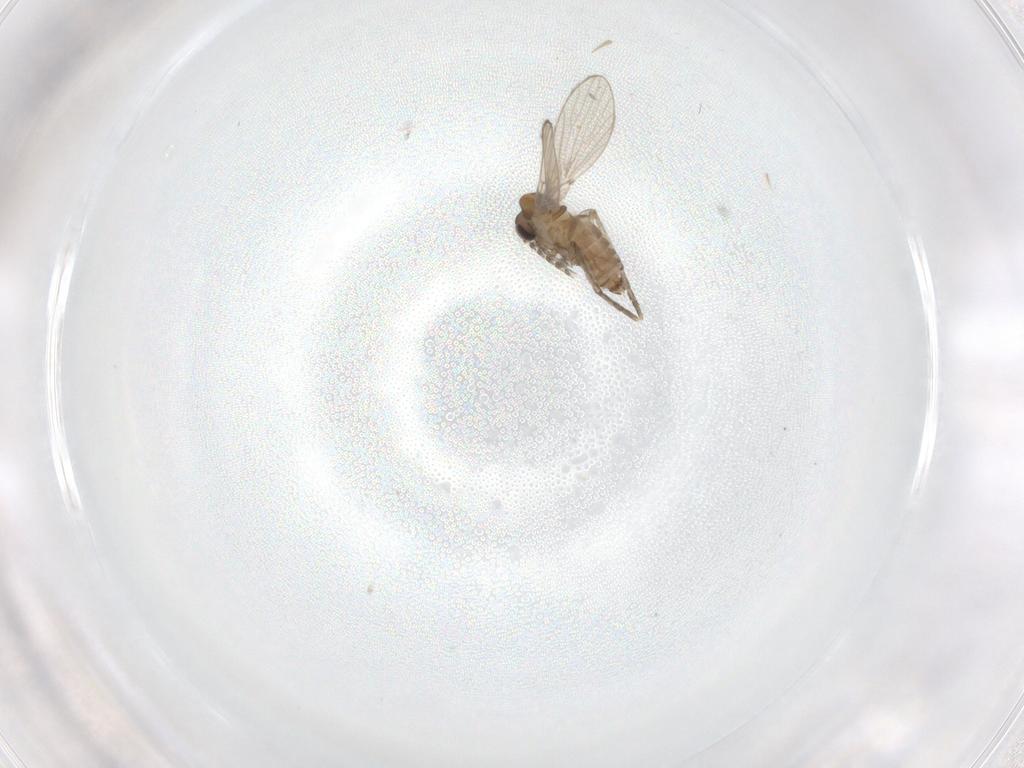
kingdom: Animalia
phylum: Arthropoda
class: Insecta
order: Diptera
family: Psychodidae
